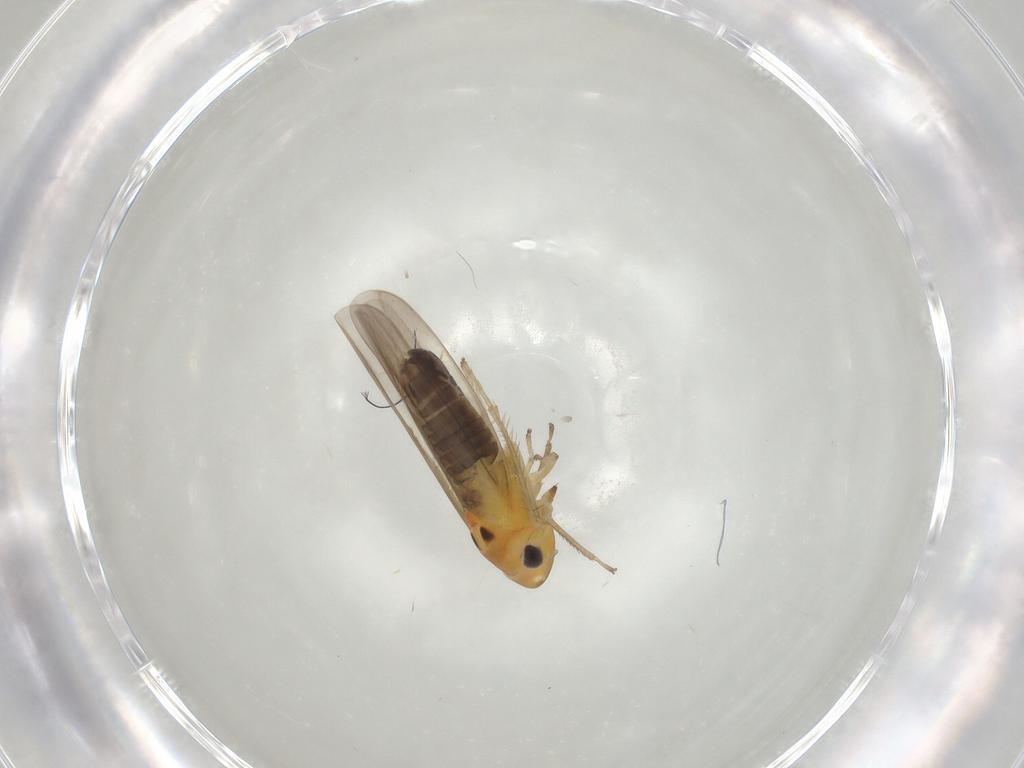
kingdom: Animalia
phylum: Arthropoda
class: Insecta
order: Hemiptera
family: Cicadellidae
